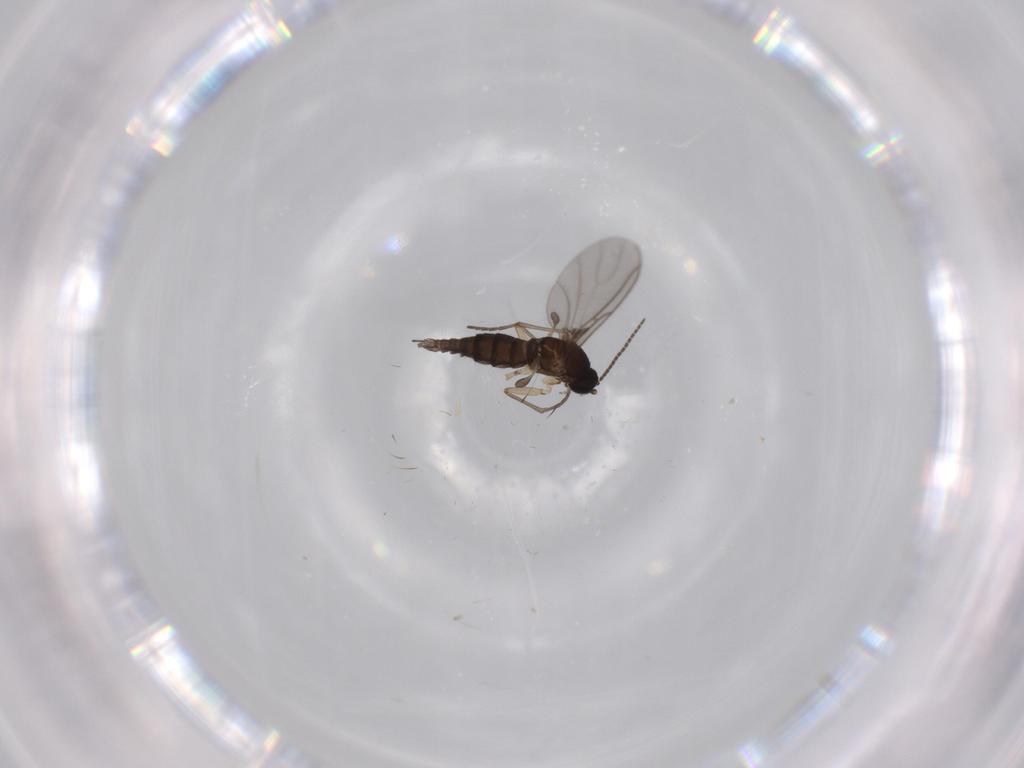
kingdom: Animalia
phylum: Arthropoda
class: Insecta
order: Diptera
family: Sciaridae
